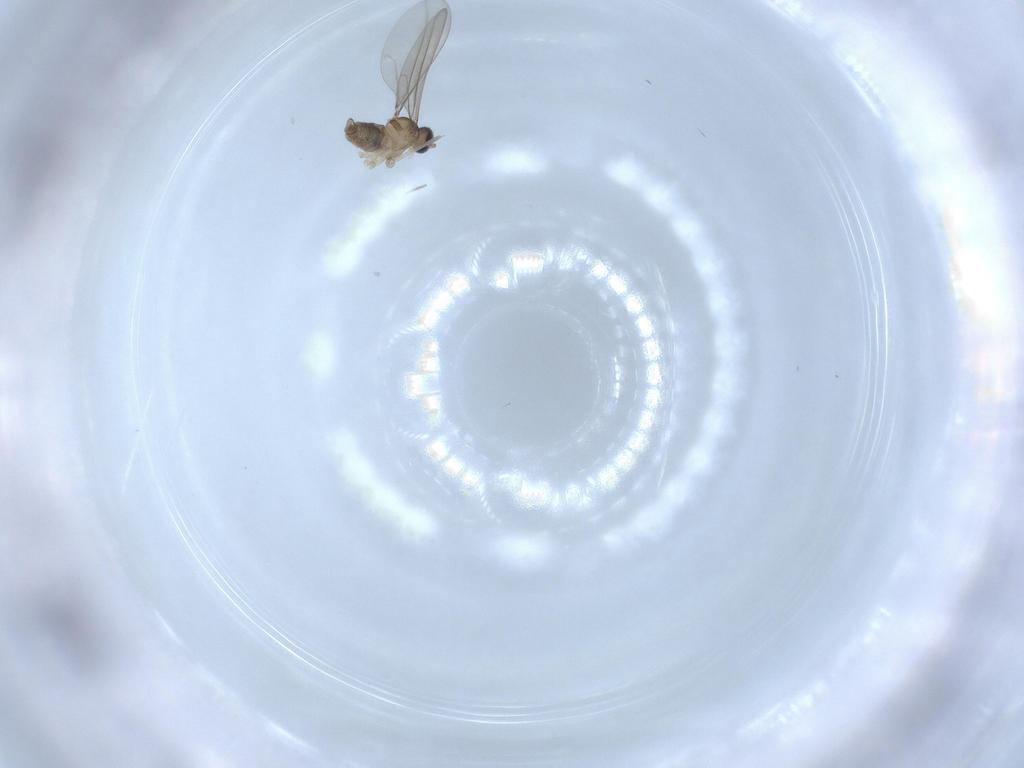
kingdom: Animalia
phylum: Arthropoda
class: Insecta
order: Diptera
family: Cecidomyiidae
